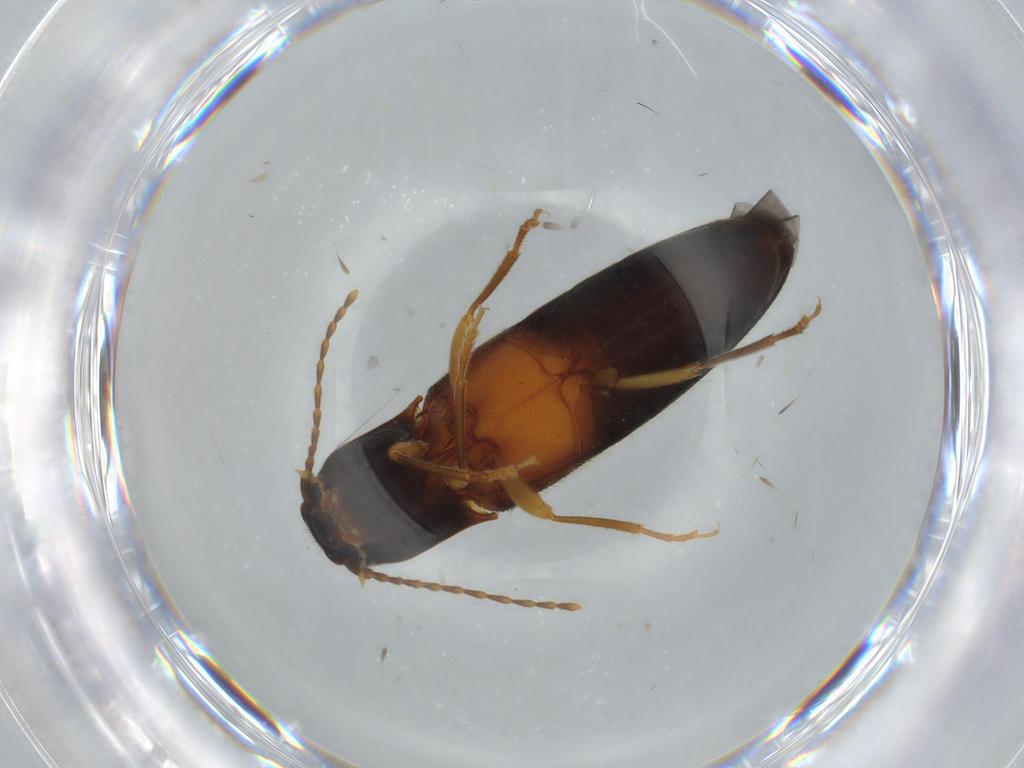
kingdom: Animalia
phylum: Arthropoda
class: Insecta
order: Coleoptera
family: Elateridae
